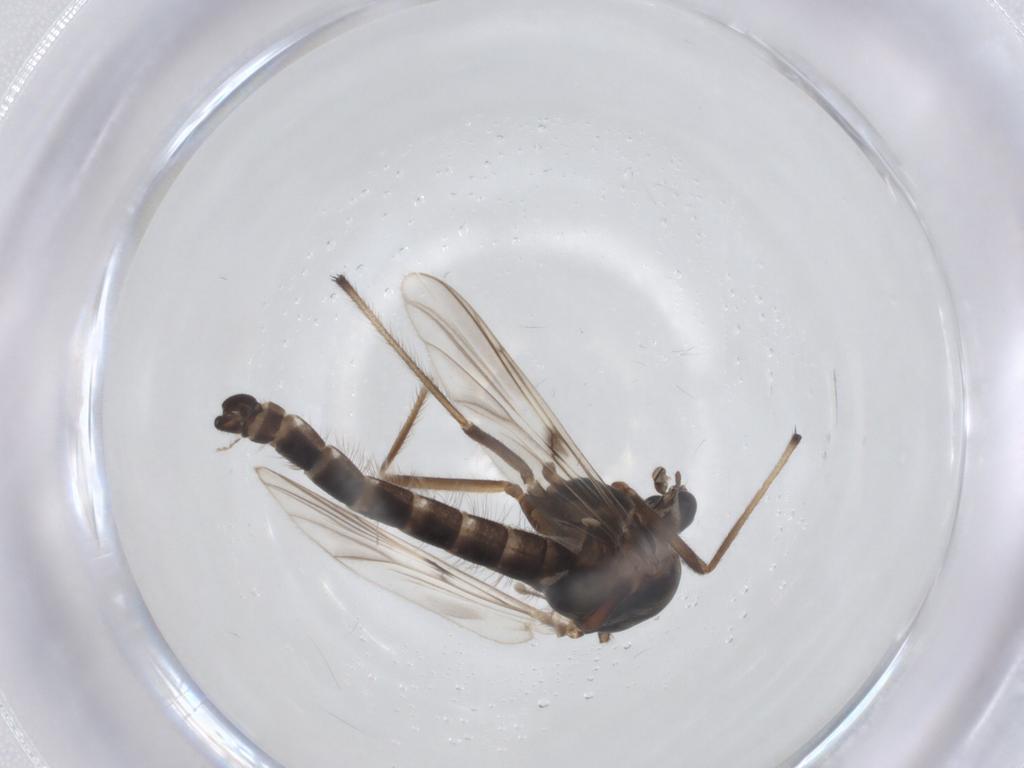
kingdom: Animalia
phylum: Arthropoda
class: Insecta
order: Diptera
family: Chironomidae
